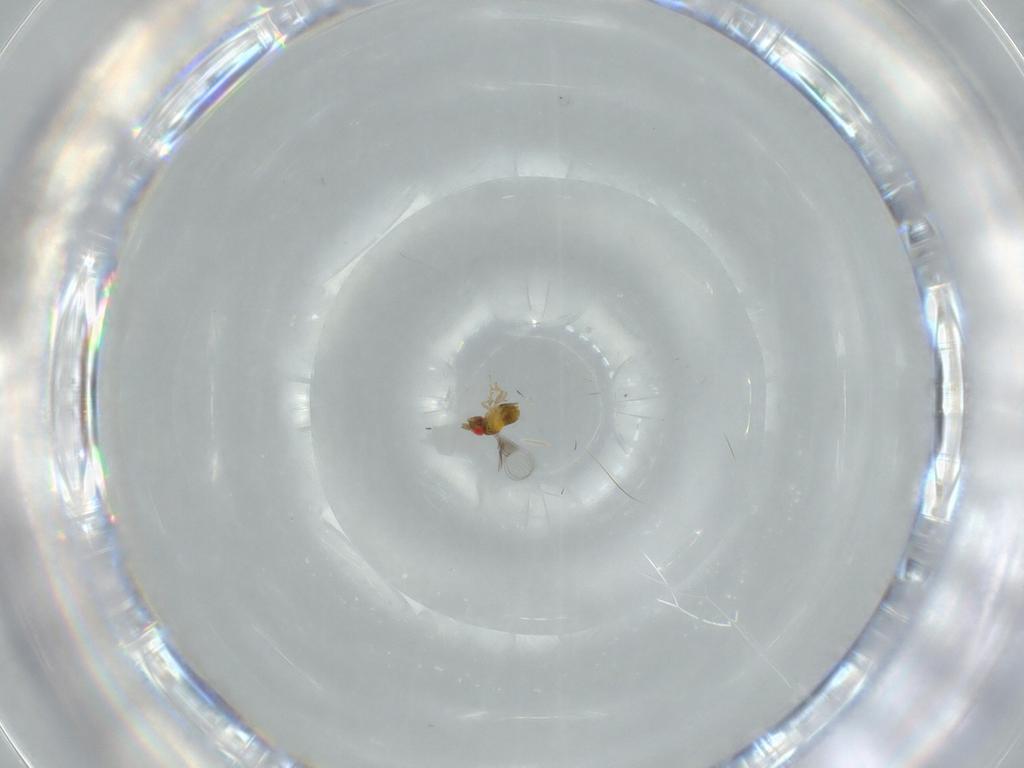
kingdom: Animalia
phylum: Arthropoda
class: Insecta
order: Hymenoptera
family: Trichogrammatidae
